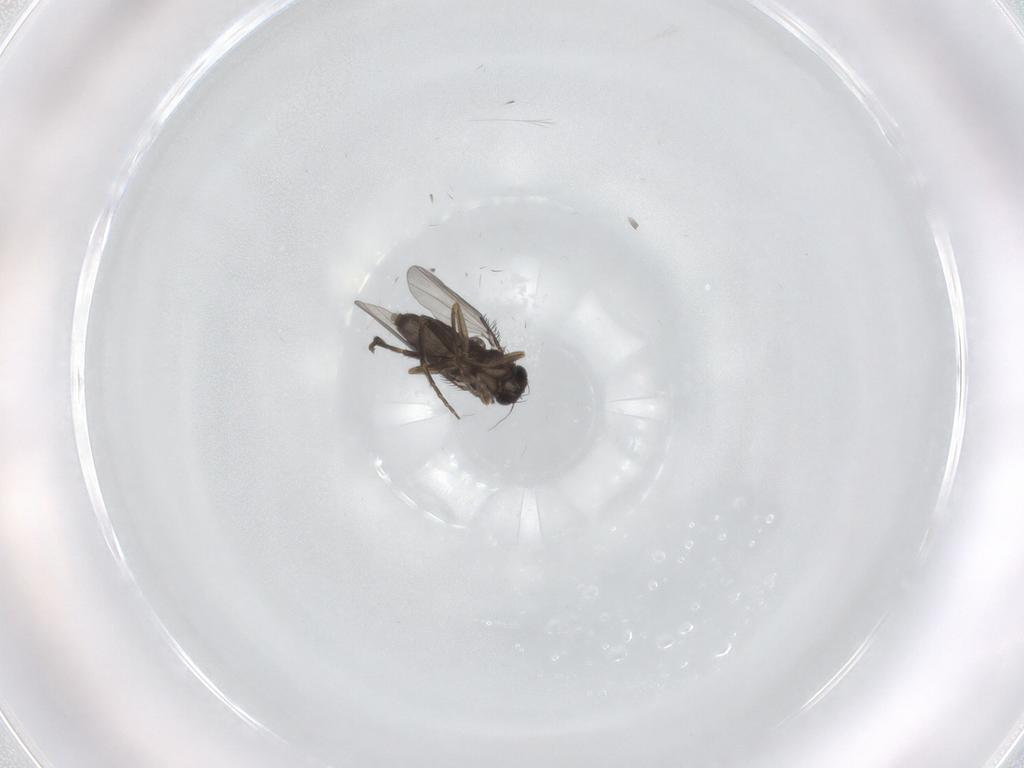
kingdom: Animalia
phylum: Arthropoda
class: Insecta
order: Diptera
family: Phoridae
